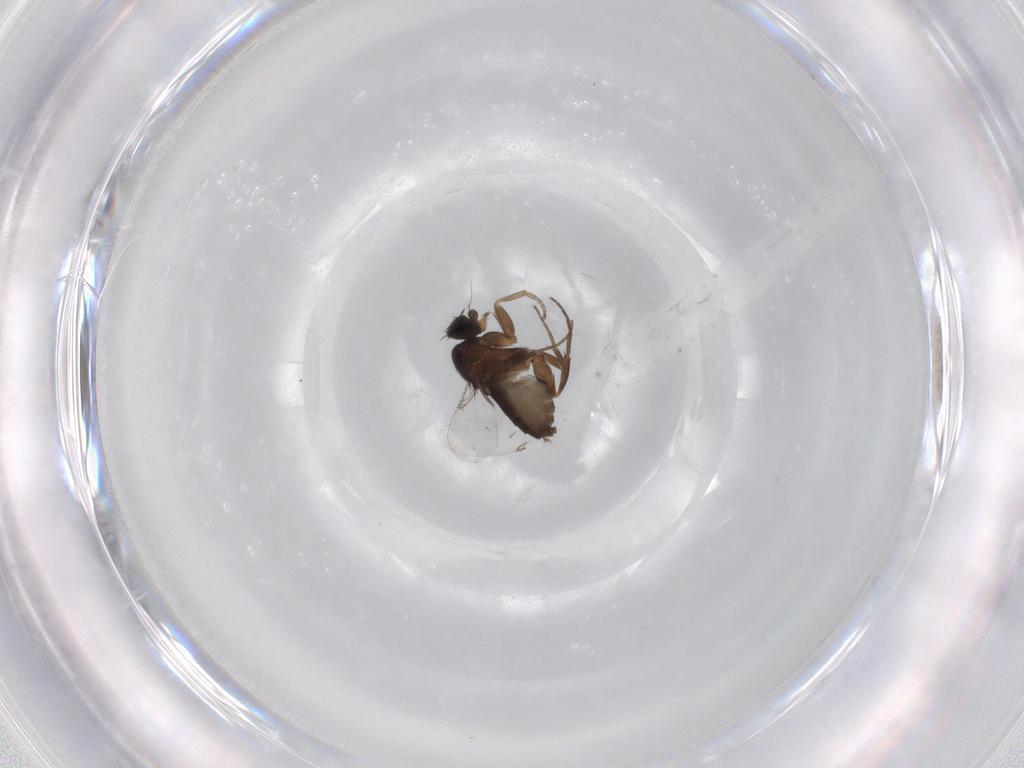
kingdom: Animalia
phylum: Arthropoda
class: Insecta
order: Diptera
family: Phoridae
